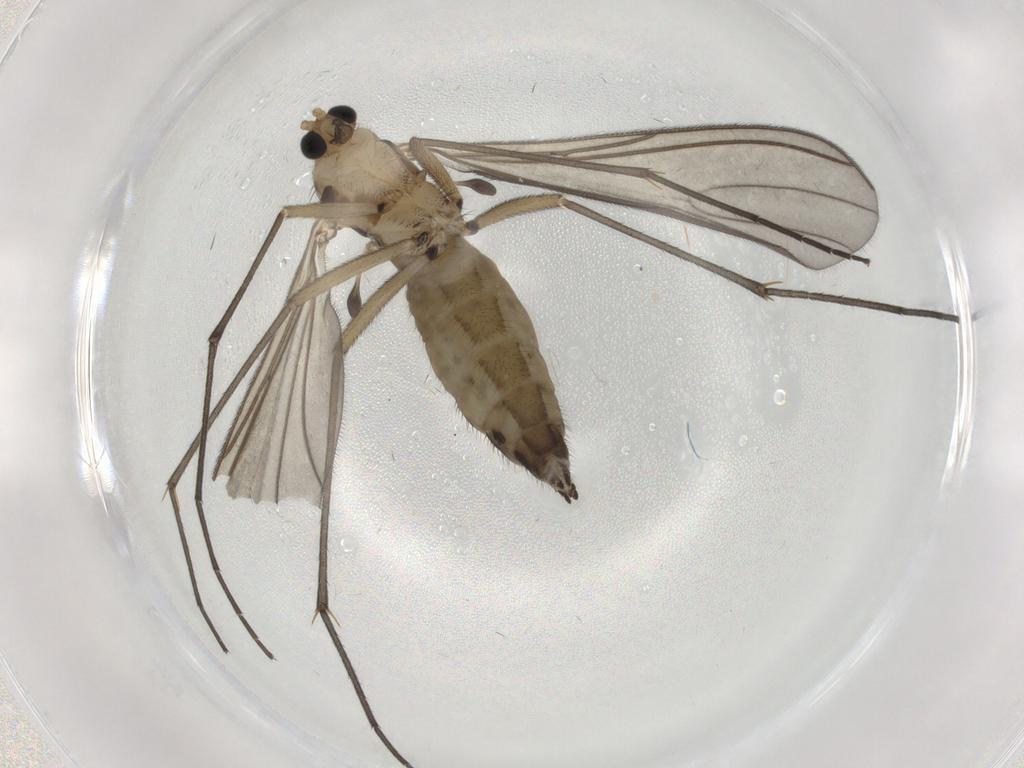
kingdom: Animalia
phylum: Arthropoda
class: Insecta
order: Diptera
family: Sciaridae
